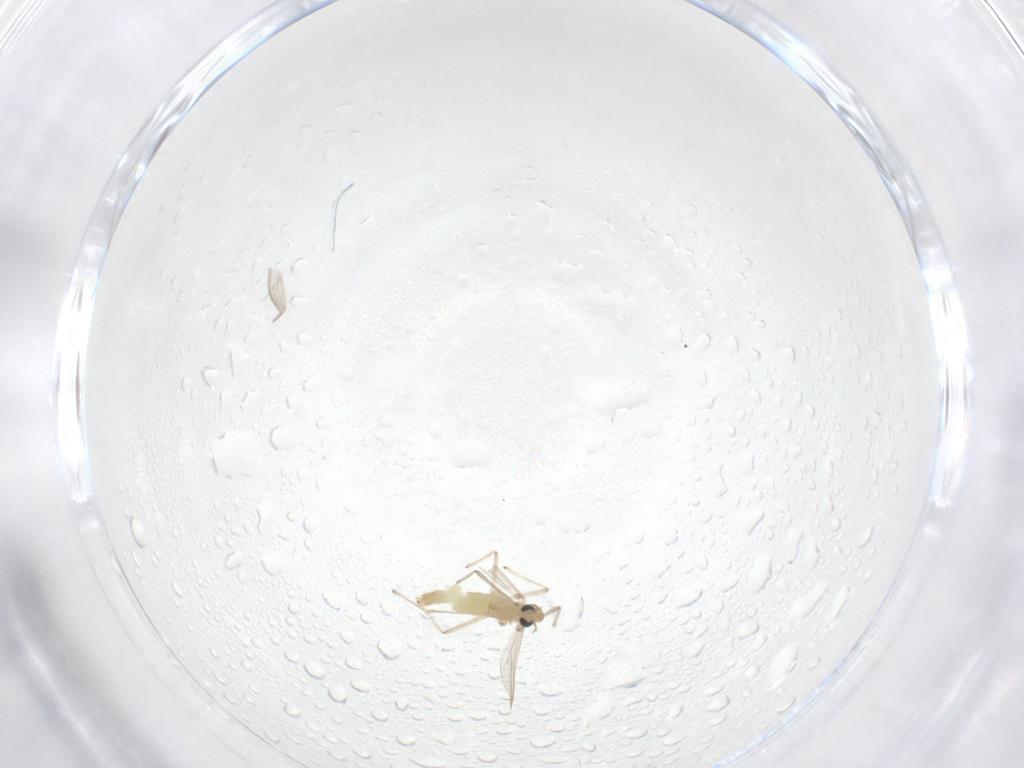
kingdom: Animalia
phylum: Arthropoda
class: Insecta
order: Diptera
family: Chironomidae
